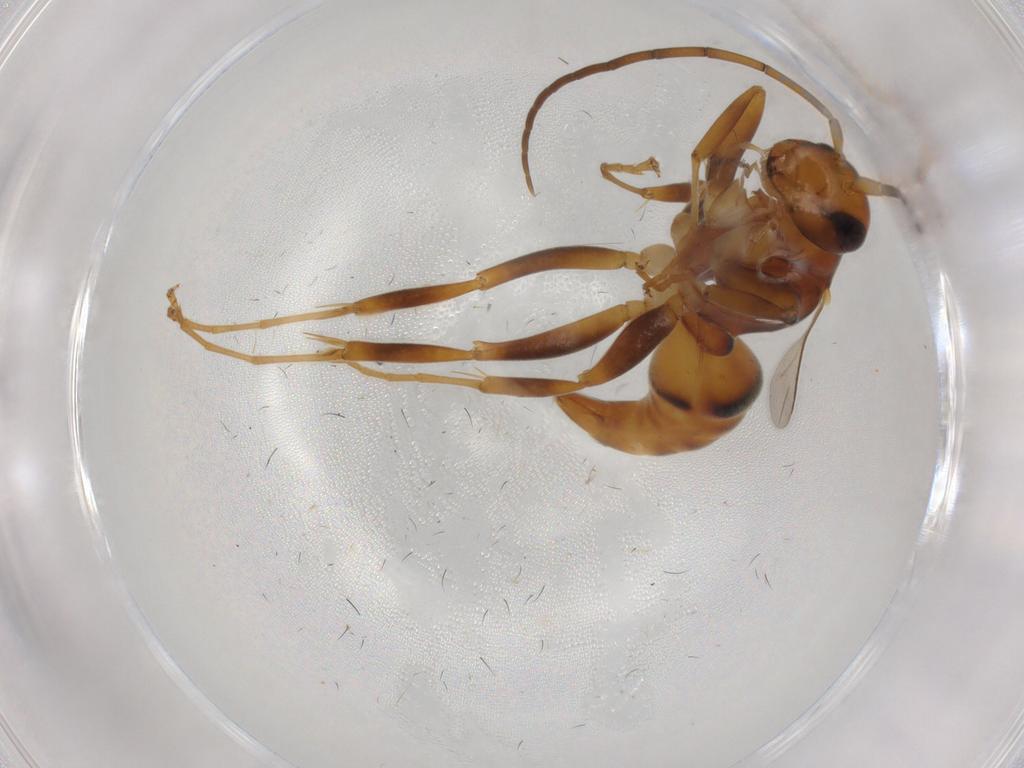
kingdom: Animalia
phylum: Arthropoda
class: Insecta
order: Hymenoptera
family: Rhopalosomatidae
